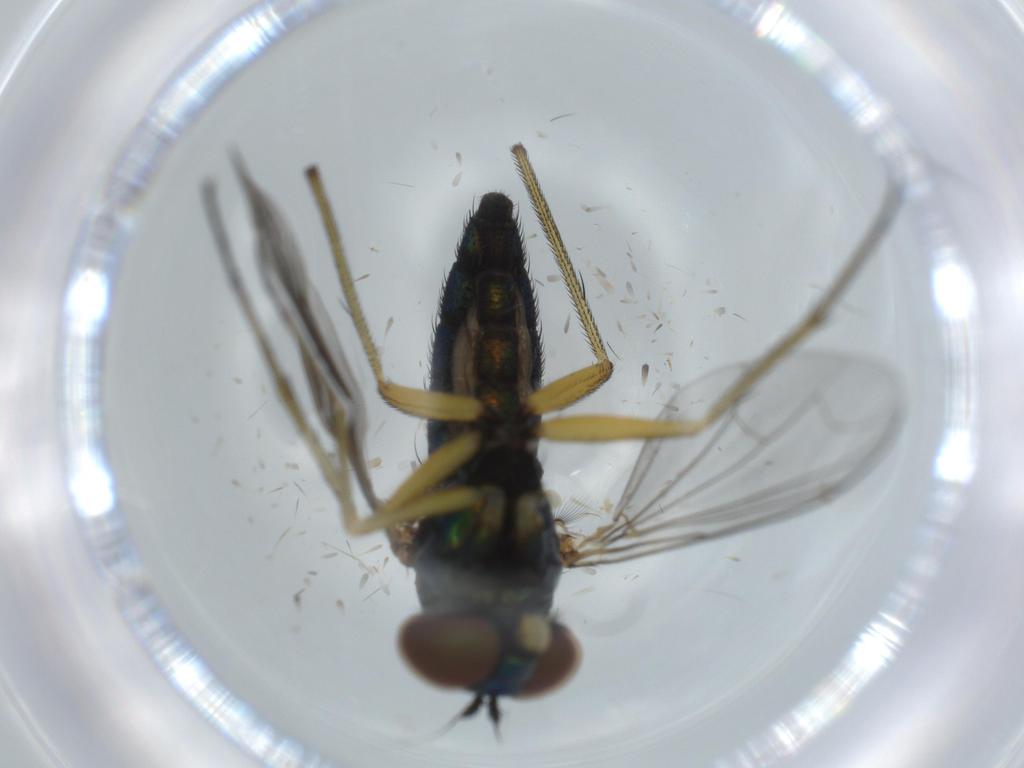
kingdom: Animalia
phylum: Arthropoda
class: Insecta
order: Diptera
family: Dolichopodidae
